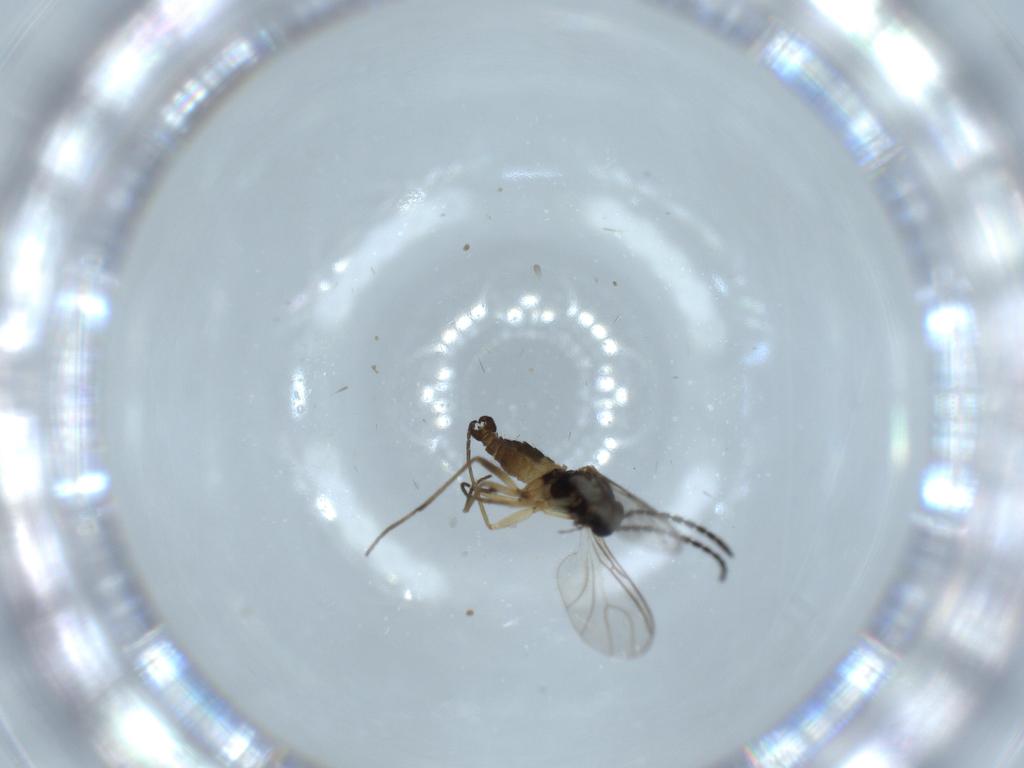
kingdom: Animalia
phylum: Arthropoda
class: Insecta
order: Diptera
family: Sciaridae
